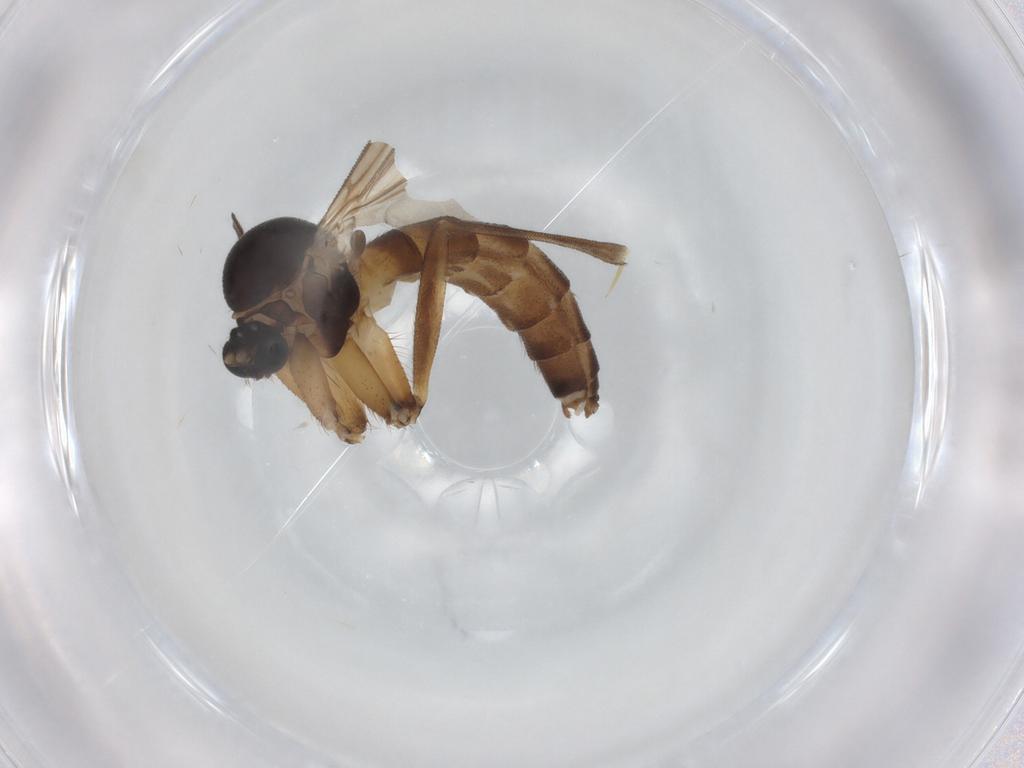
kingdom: Animalia
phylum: Arthropoda
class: Insecta
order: Diptera
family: Mycetophilidae
